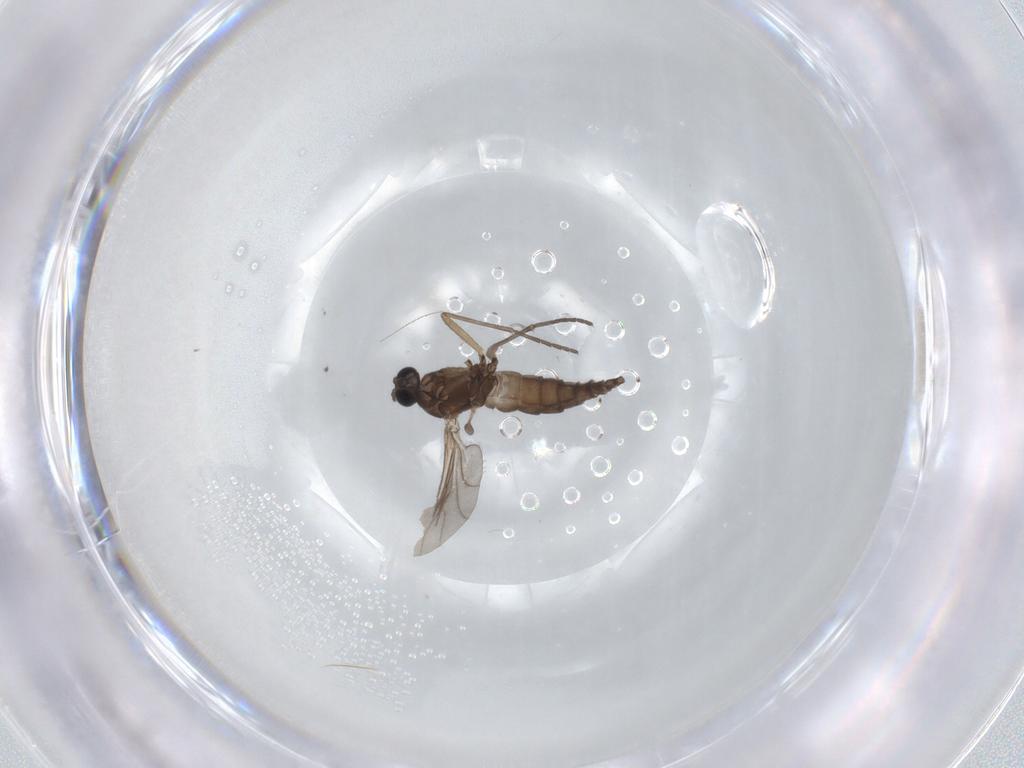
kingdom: Animalia
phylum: Arthropoda
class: Insecta
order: Diptera
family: Sciaridae
